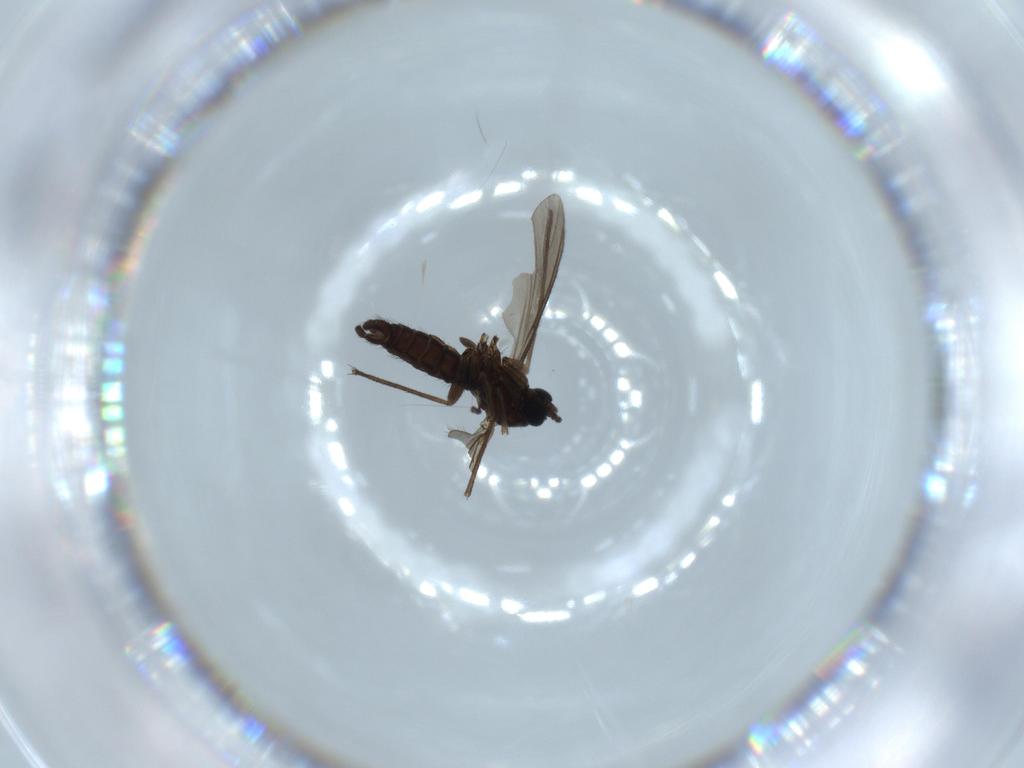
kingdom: Animalia
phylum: Arthropoda
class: Insecta
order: Diptera
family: Sciaridae
